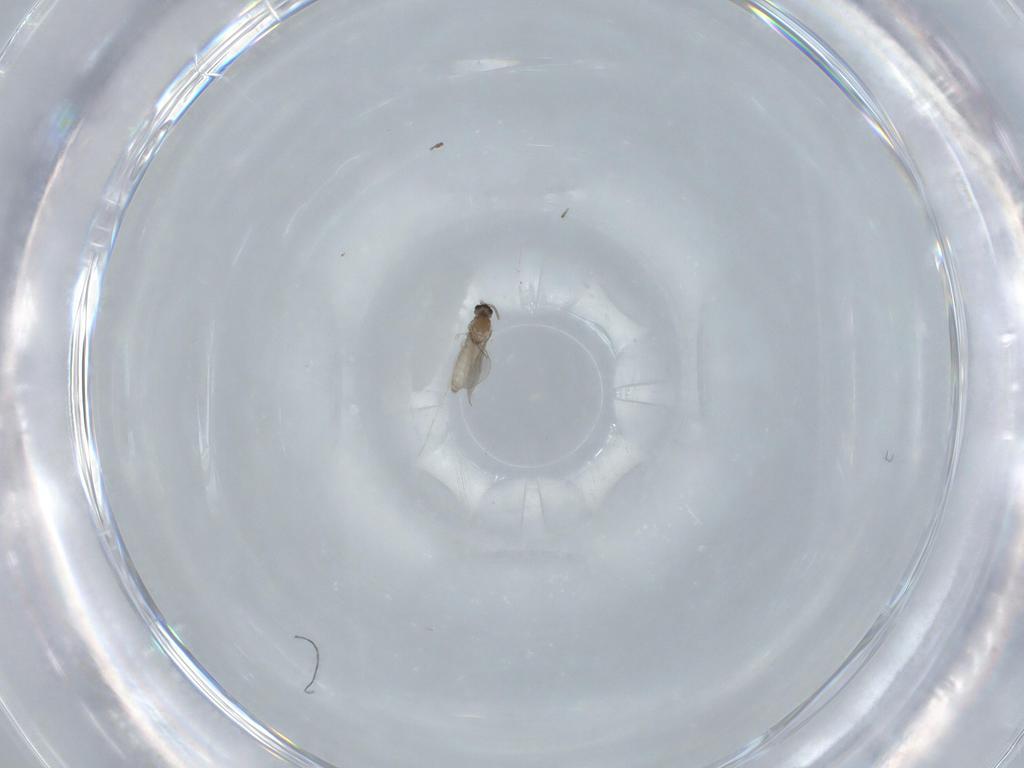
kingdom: Animalia
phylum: Arthropoda
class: Insecta
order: Diptera
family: Cecidomyiidae
